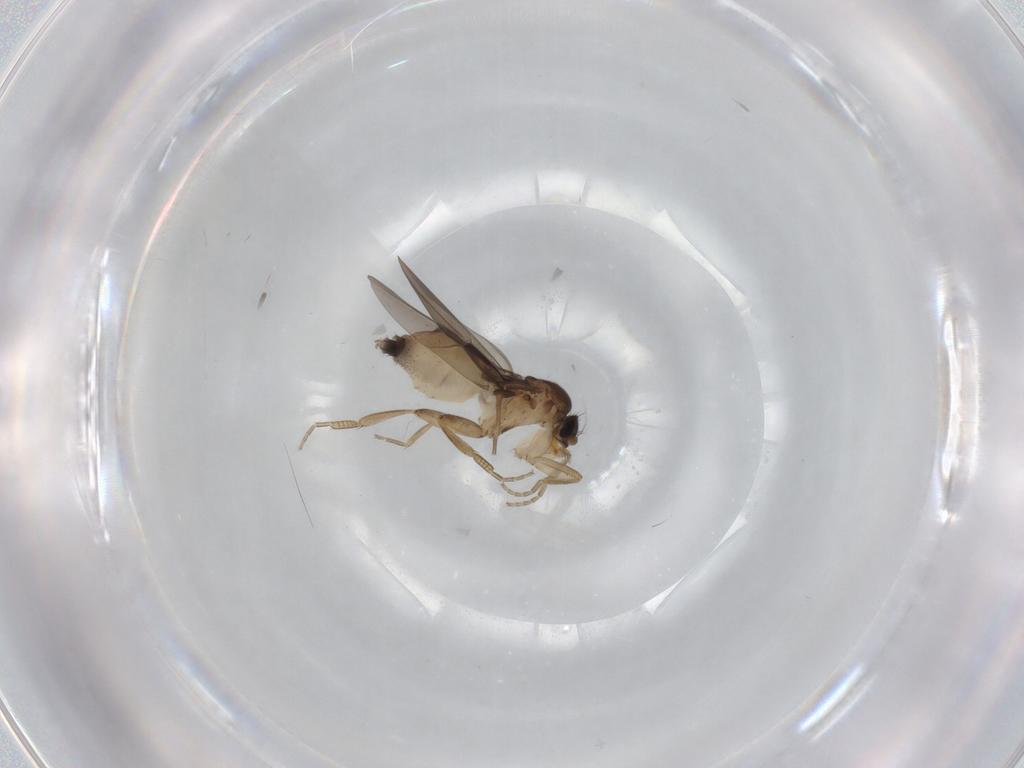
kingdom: Animalia
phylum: Arthropoda
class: Insecta
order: Diptera
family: Phoridae
